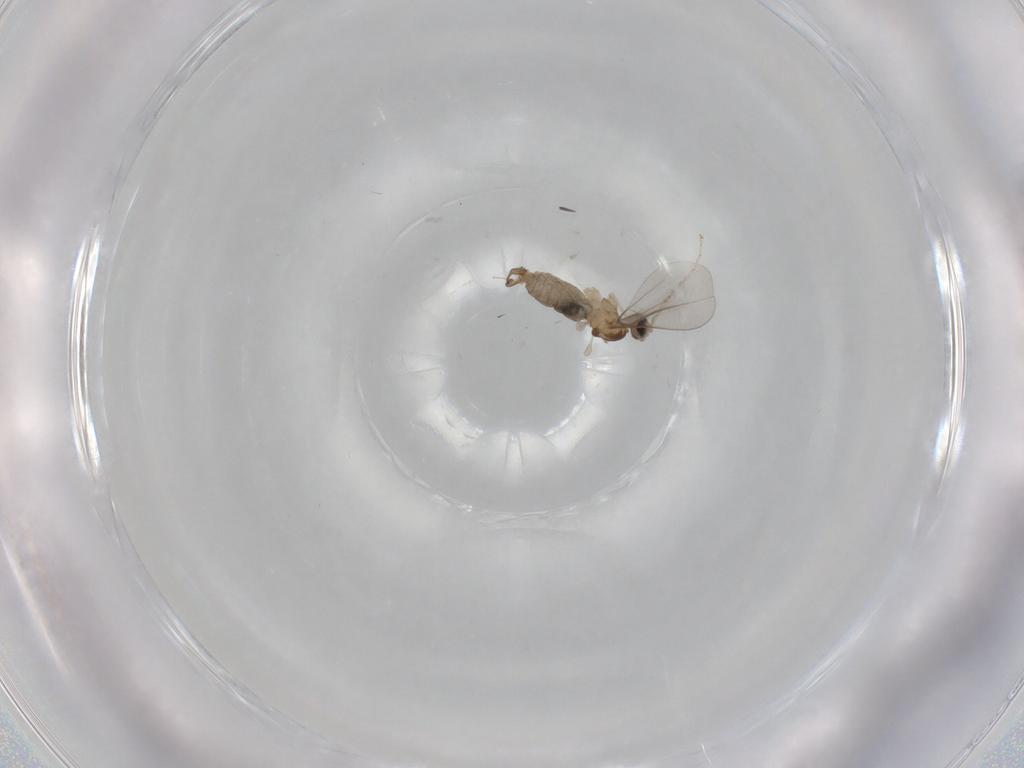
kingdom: Animalia
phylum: Arthropoda
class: Insecta
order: Diptera
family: Cecidomyiidae
